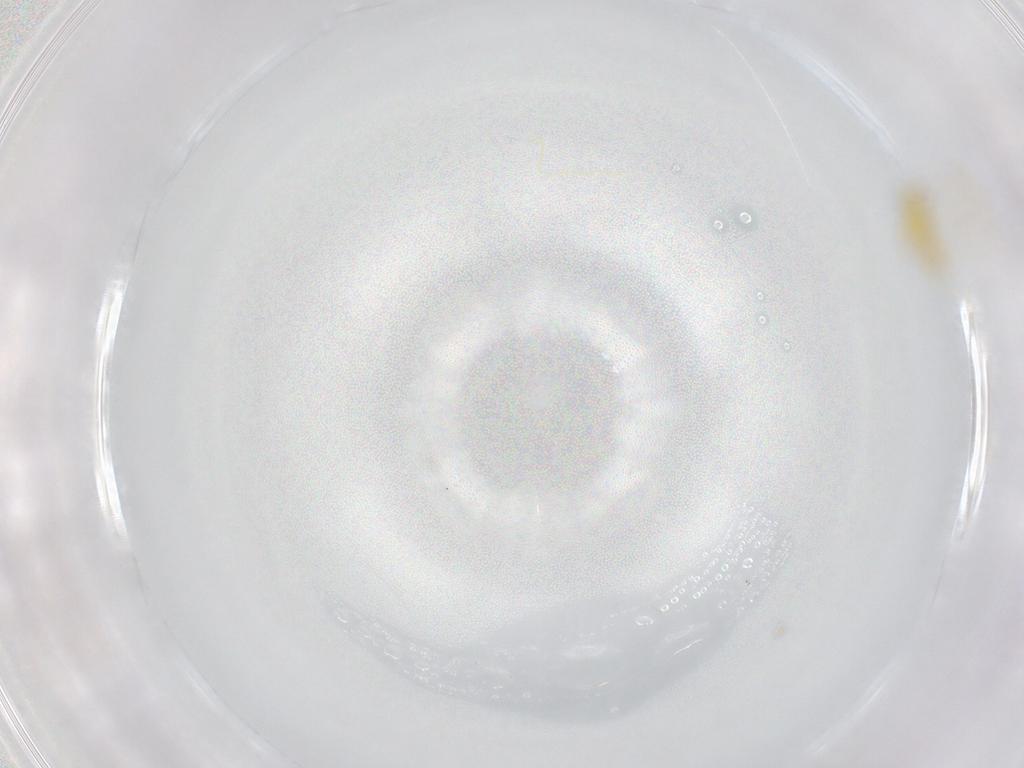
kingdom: Animalia
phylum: Arthropoda
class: Insecta
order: Hymenoptera
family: Aphelinidae
